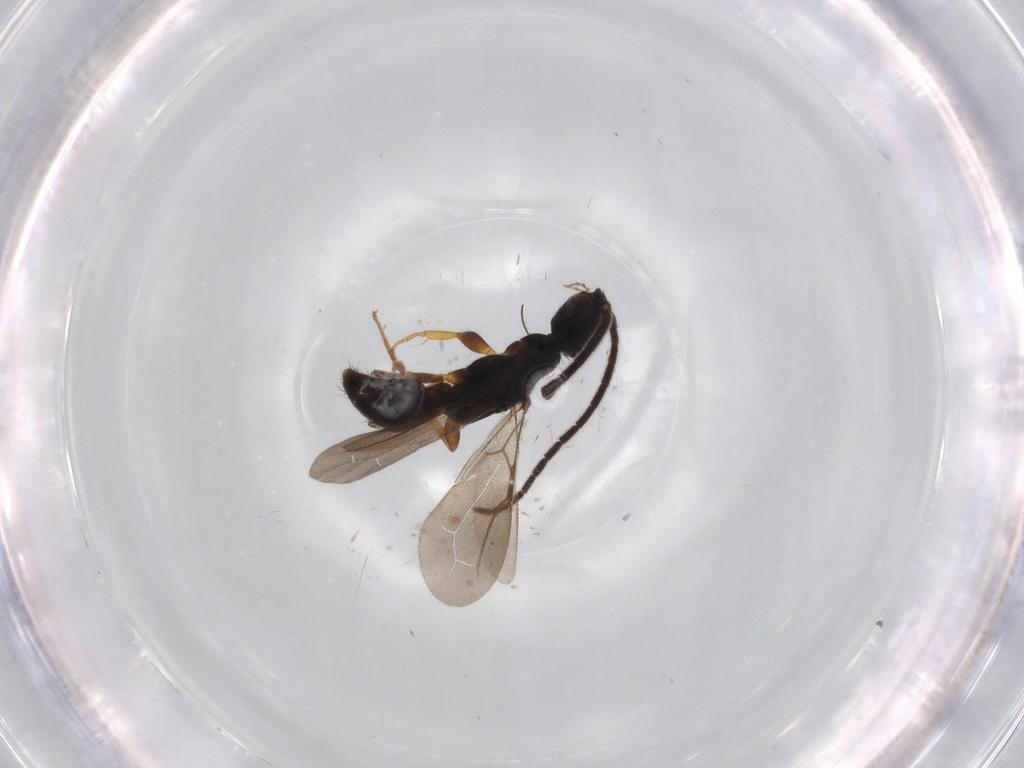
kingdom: Animalia
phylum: Arthropoda
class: Insecta
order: Hymenoptera
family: Bethylidae
